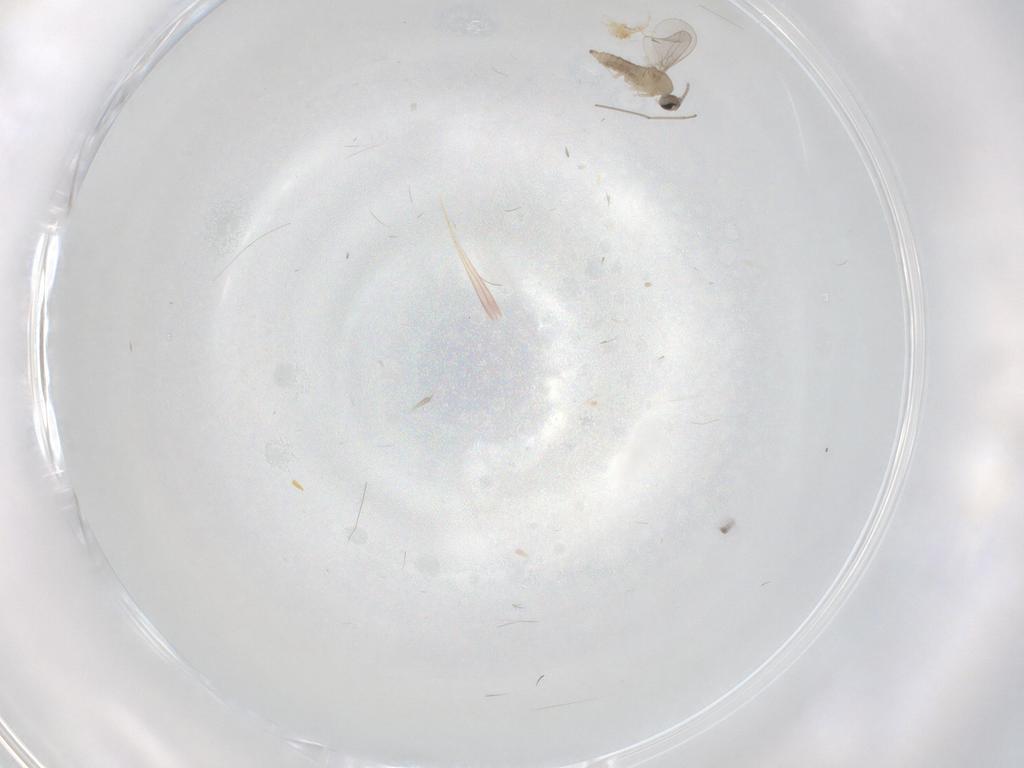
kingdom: Animalia
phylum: Arthropoda
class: Insecta
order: Diptera
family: Cecidomyiidae
